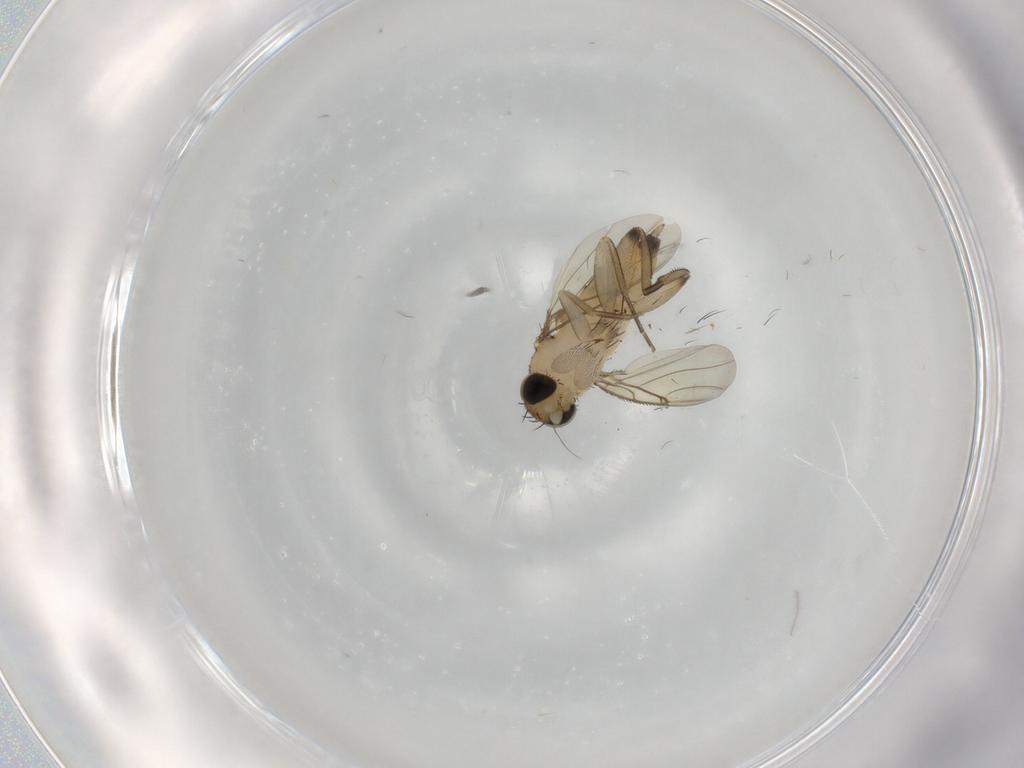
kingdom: Animalia
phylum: Arthropoda
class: Insecta
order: Diptera
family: Phoridae
